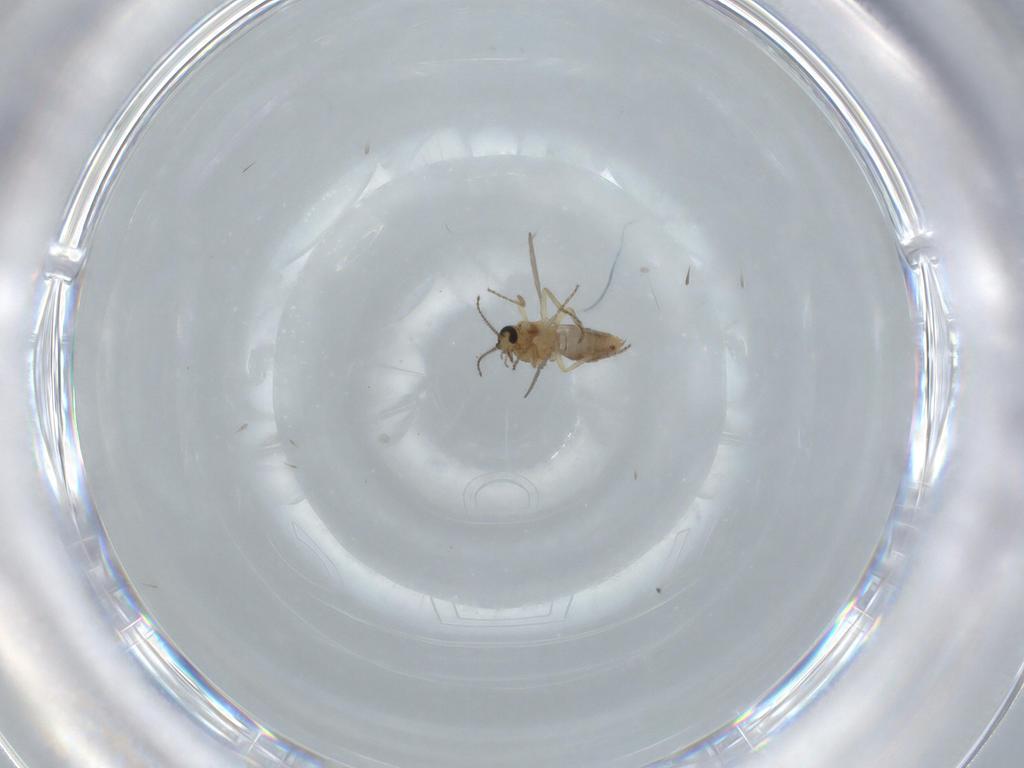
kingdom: Animalia
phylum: Arthropoda
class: Insecta
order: Diptera
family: Ceratopogonidae
